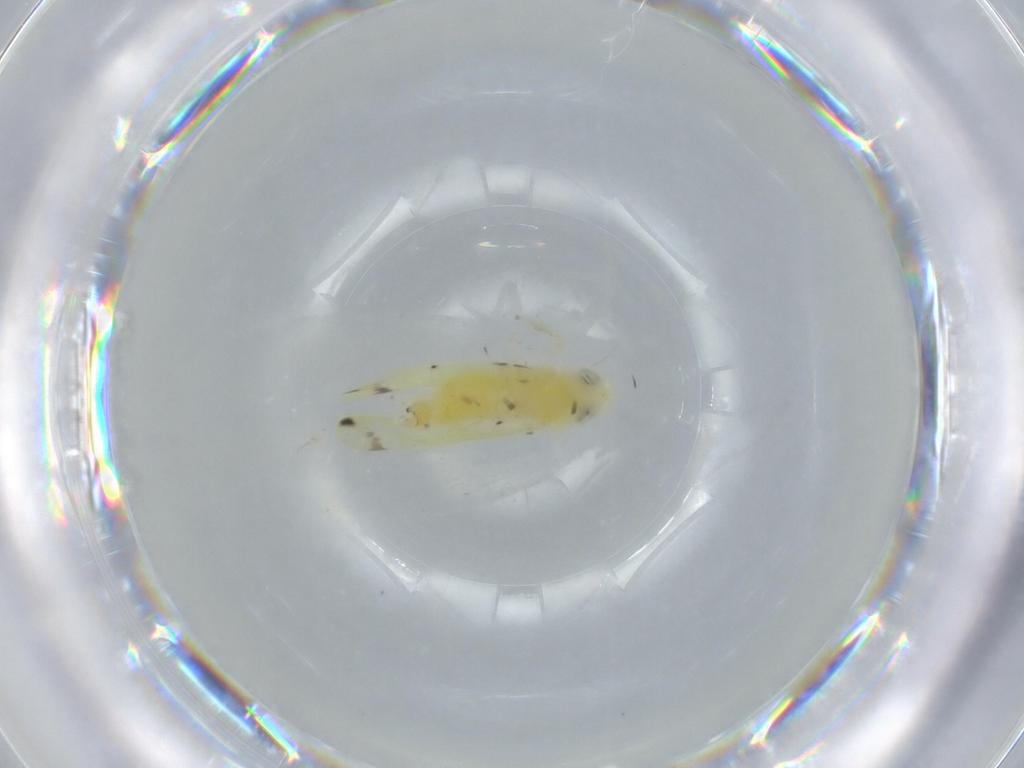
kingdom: Animalia
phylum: Arthropoda
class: Insecta
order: Hemiptera
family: Cicadellidae
